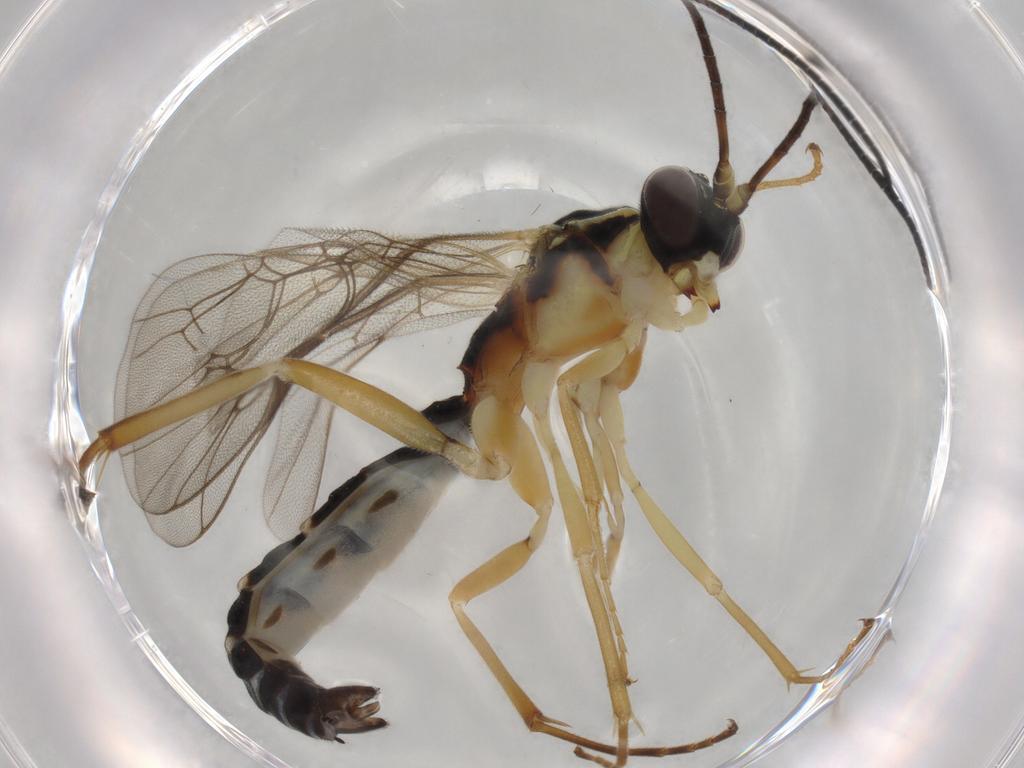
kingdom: Animalia
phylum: Arthropoda
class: Insecta
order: Hymenoptera
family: Ichneumonidae
